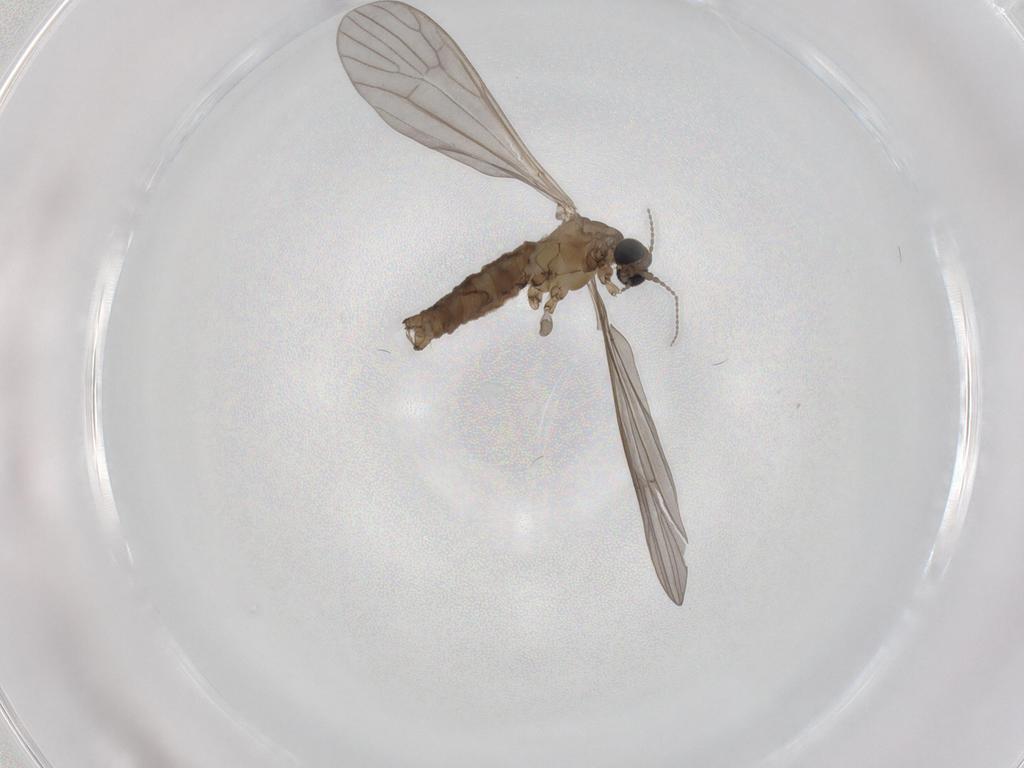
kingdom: Animalia
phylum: Arthropoda
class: Insecta
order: Diptera
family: Limoniidae
